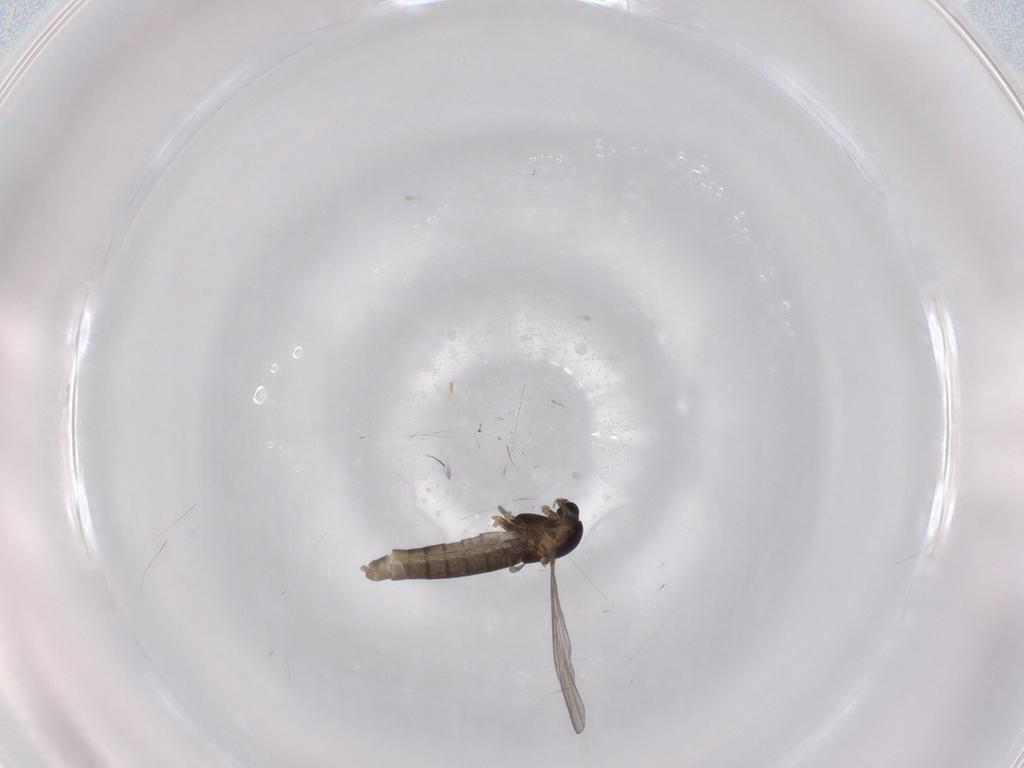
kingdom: Animalia
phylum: Arthropoda
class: Insecta
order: Diptera
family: Chironomidae
